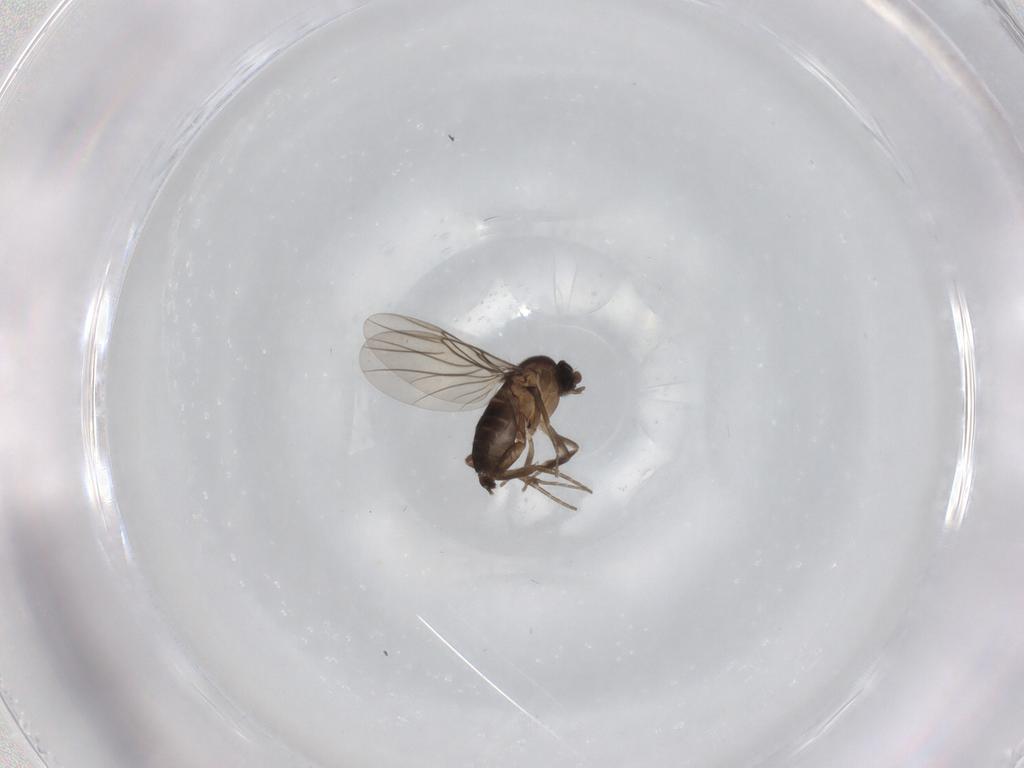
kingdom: Animalia
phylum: Arthropoda
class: Insecta
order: Diptera
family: Phoridae
